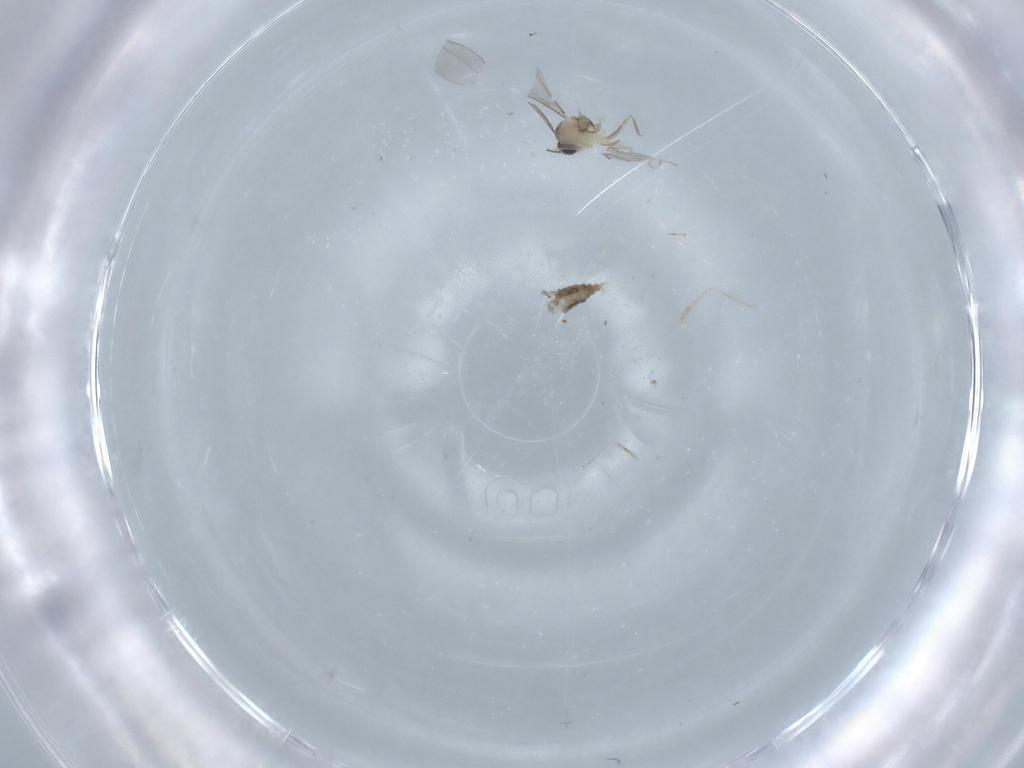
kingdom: Animalia
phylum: Arthropoda
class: Insecta
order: Diptera
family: Cecidomyiidae
